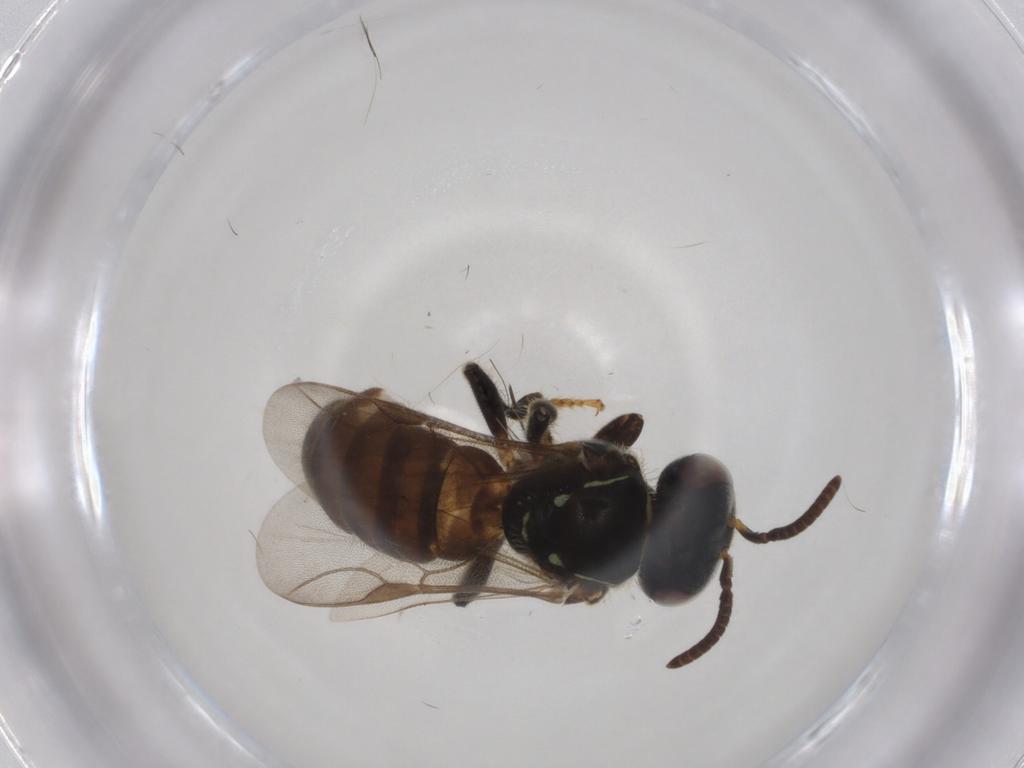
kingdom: Animalia
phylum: Arthropoda
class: Insecta
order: Hymenoptera
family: Apidae
